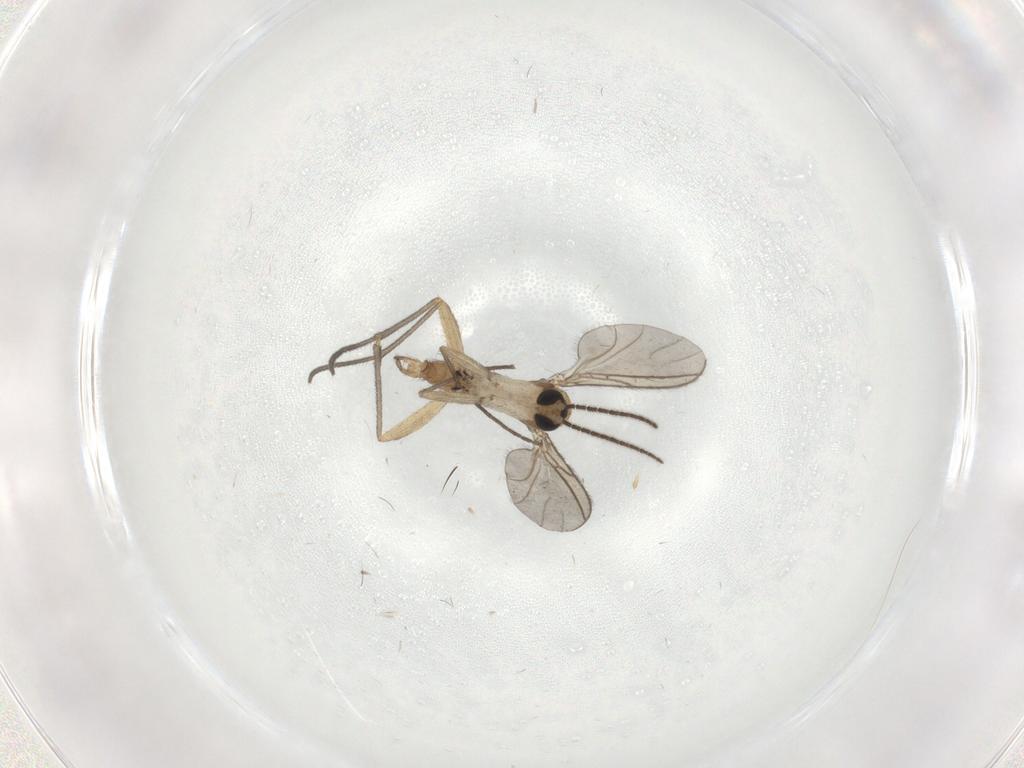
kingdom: Animalia
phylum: Arthropoda
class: Insecta
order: Diptera
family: Sciaridae
